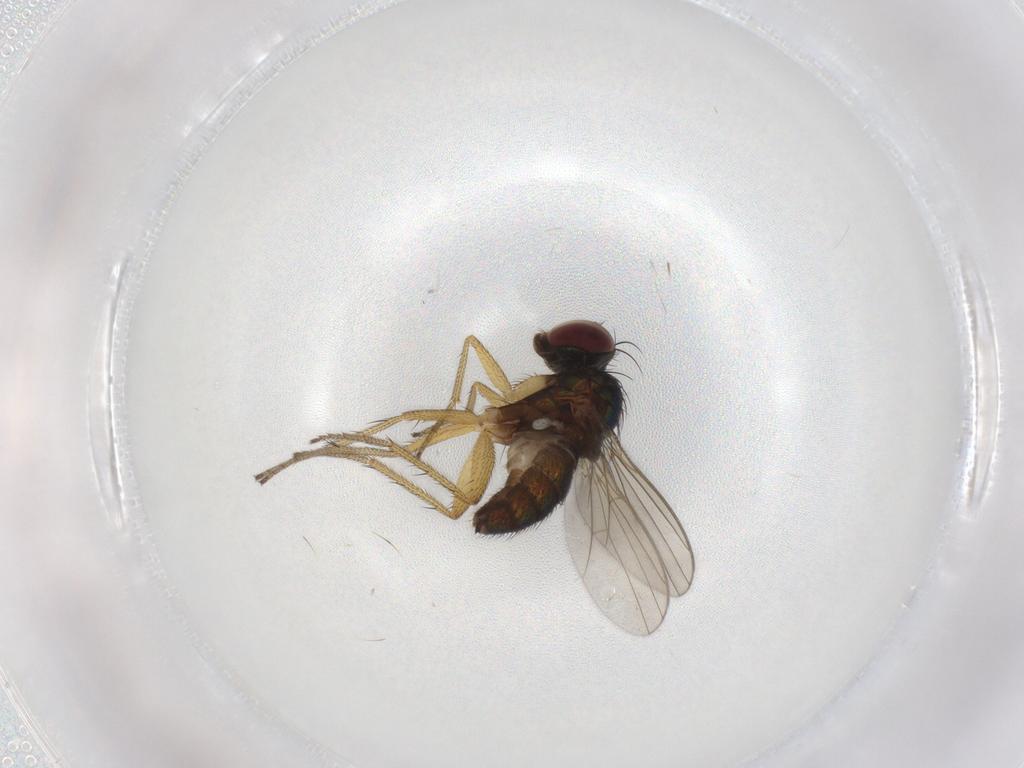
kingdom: Animalia
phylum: Arthropoda
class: Insecta
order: Diptera
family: Dolichopodidae
